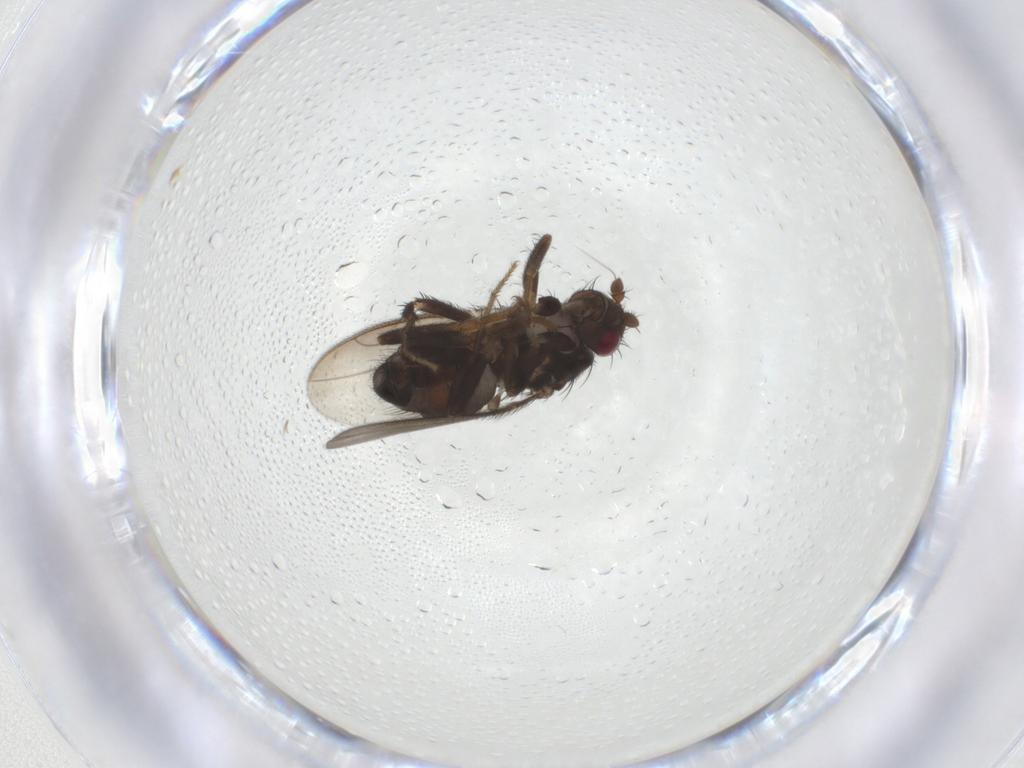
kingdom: Animalia
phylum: Arthropoda
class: Insecta
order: Diptera
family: Sphaeroceridae
